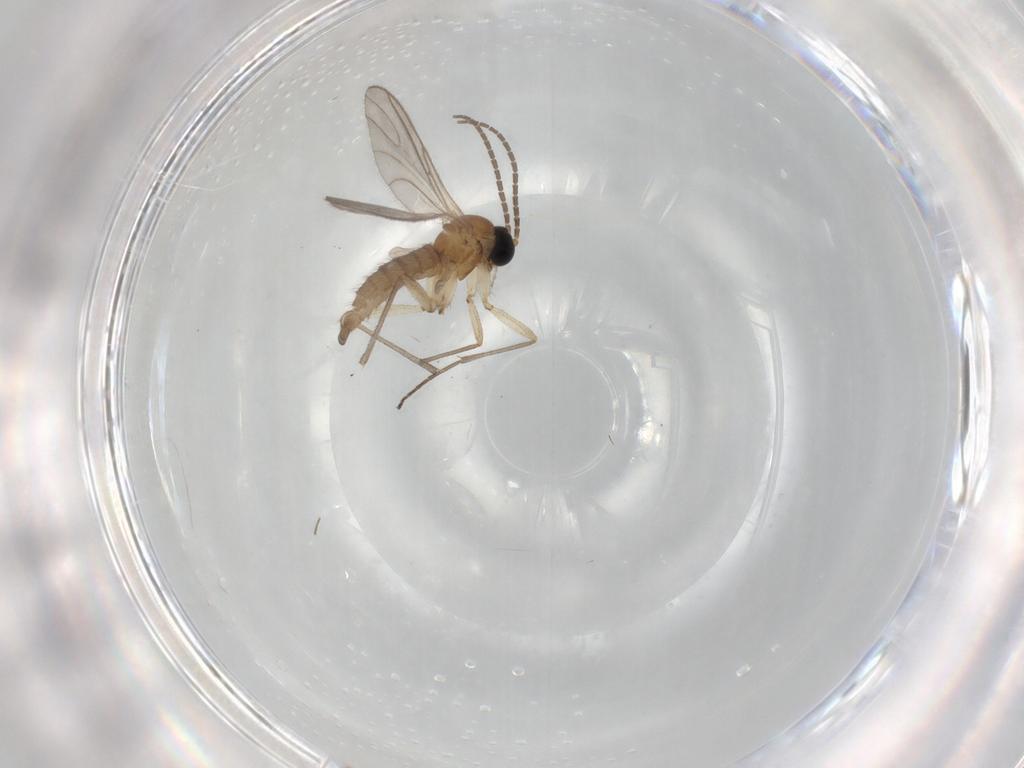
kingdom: Animalia
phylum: Arthropoda
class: Insecta
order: Diptera
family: Sciaridae
